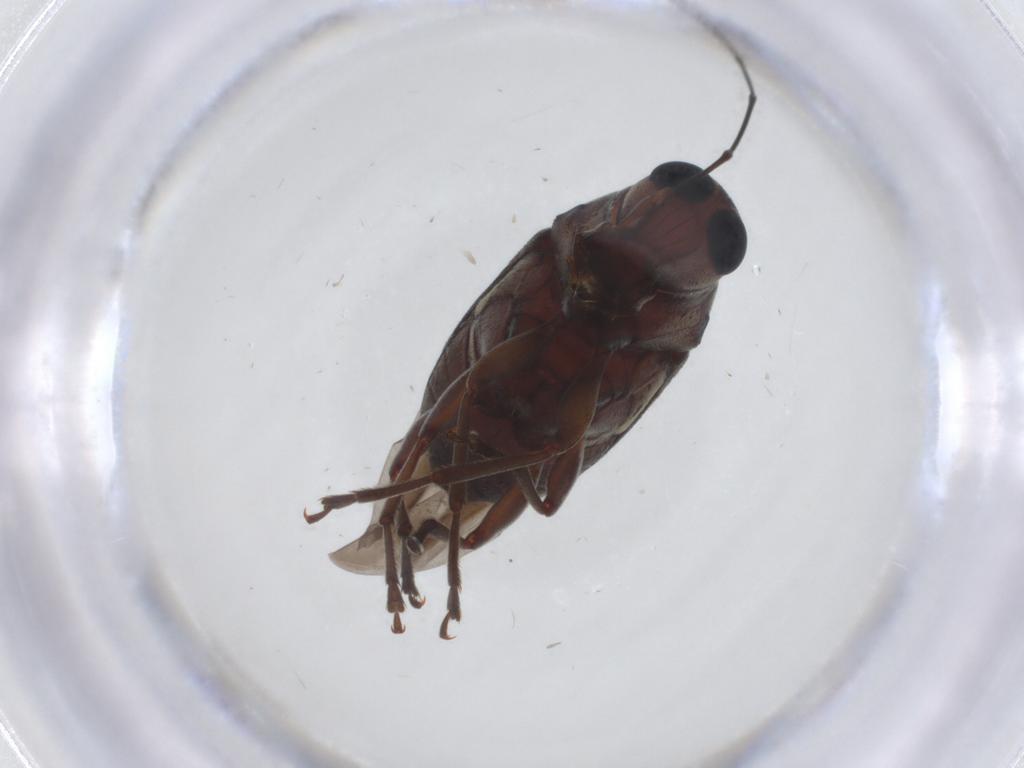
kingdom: Animalia
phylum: Arthropoda
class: Insecta
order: Coleoptera
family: Anthribidae
